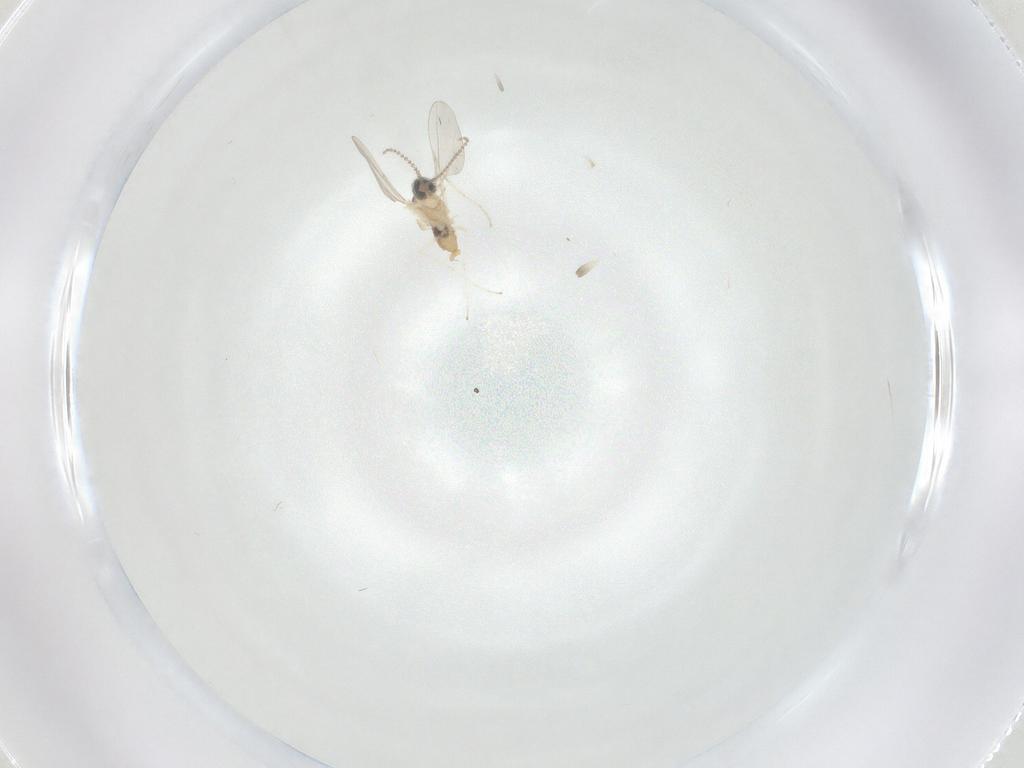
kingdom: Animalia
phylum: Arthropoda
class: Insecta
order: Diptera
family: Cecidomyiidae
